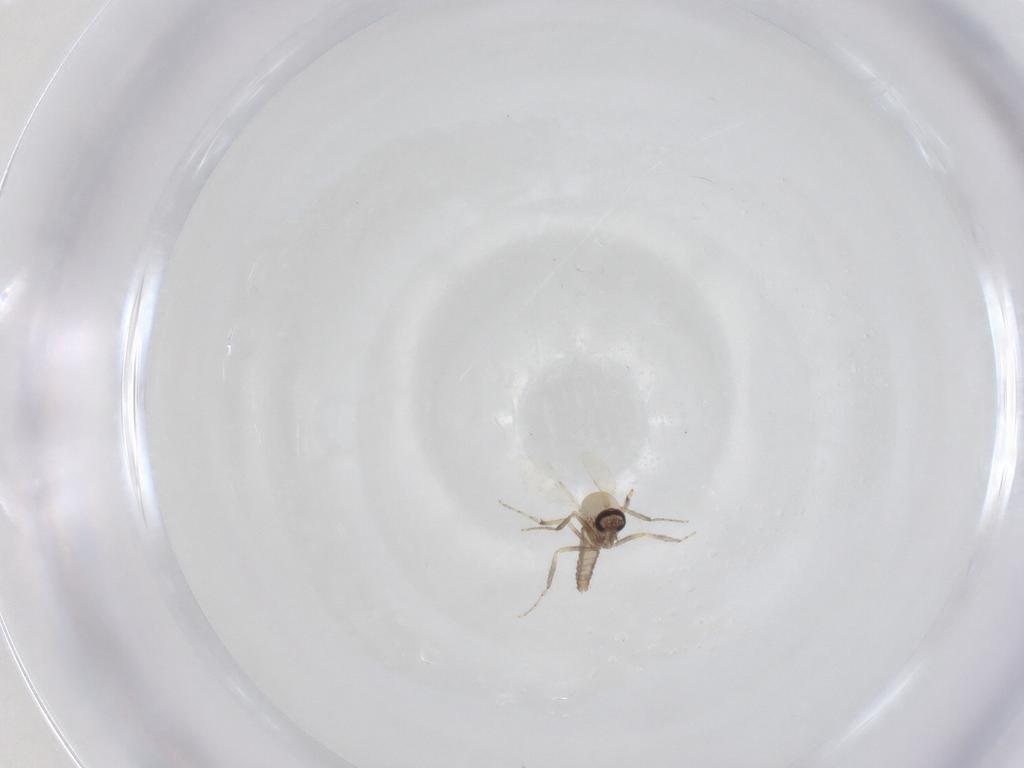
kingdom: Animalia
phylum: Arthropoda
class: Insecta
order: Diptera
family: Ceratopogonidae
